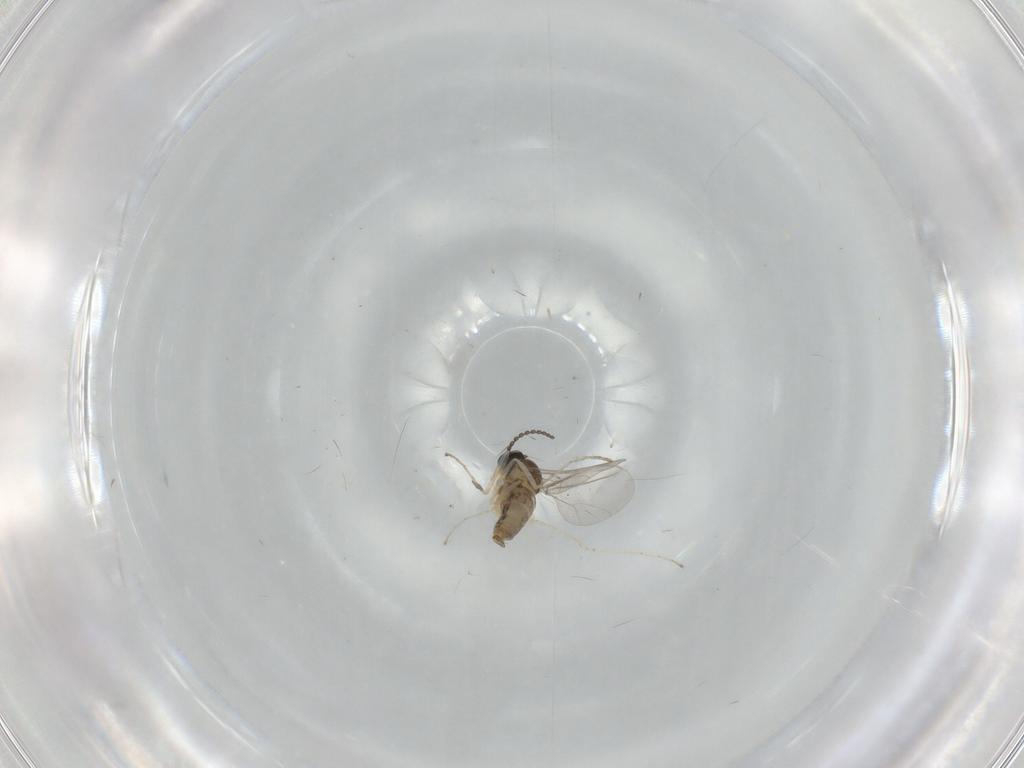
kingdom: Animalia
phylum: Arthropoda
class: Insecta
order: Diptera
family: Cecidomyiidae
